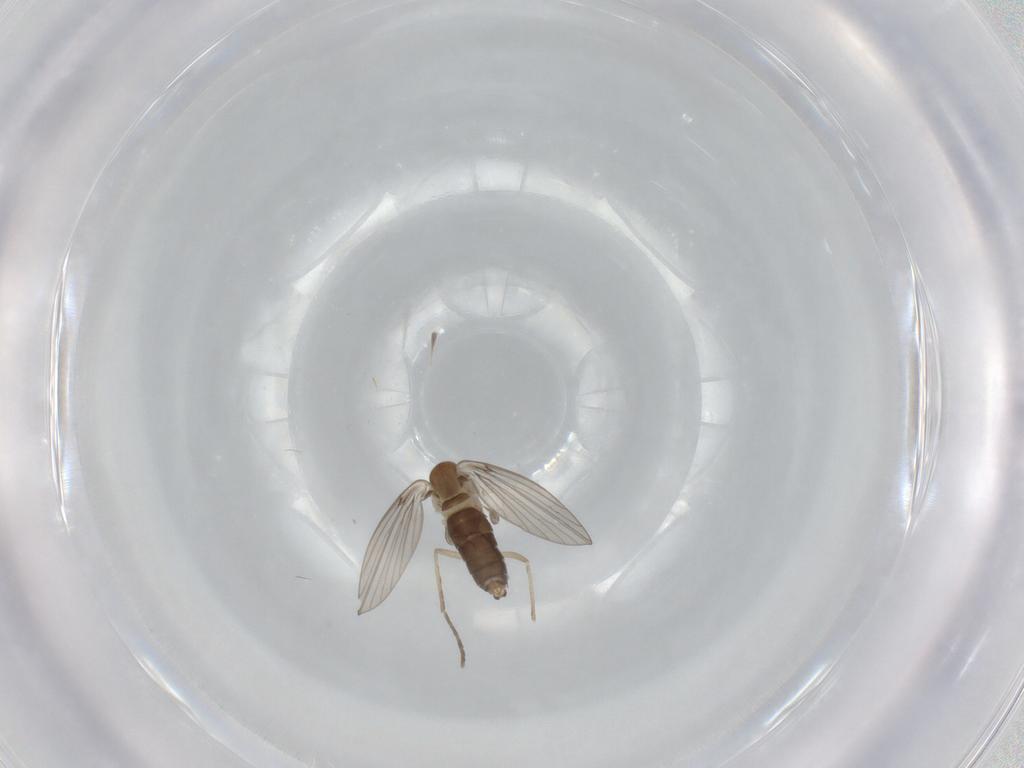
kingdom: Animalia
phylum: Arthropoda
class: Insecta
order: Diptera
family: Psychodidae
